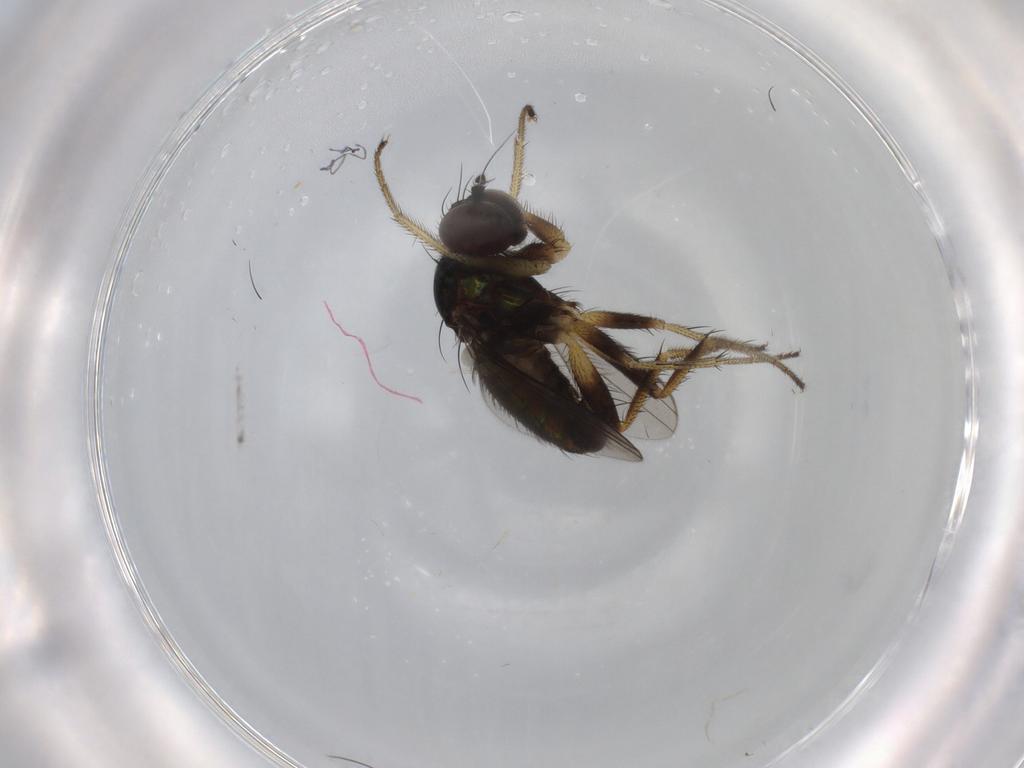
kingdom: Animalia
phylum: Arthropoda
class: Insecta
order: Diptera
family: Dolichopodidae
